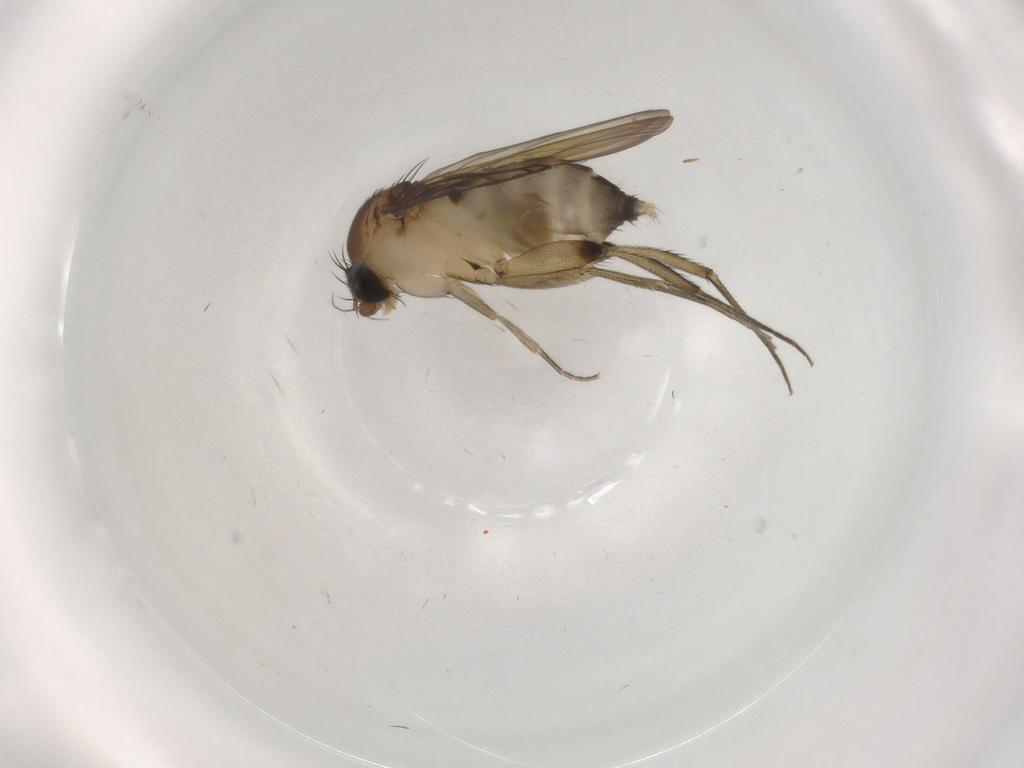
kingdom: Animalia
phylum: Arthropoda
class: Insecta
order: Diptera
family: Phoridae
